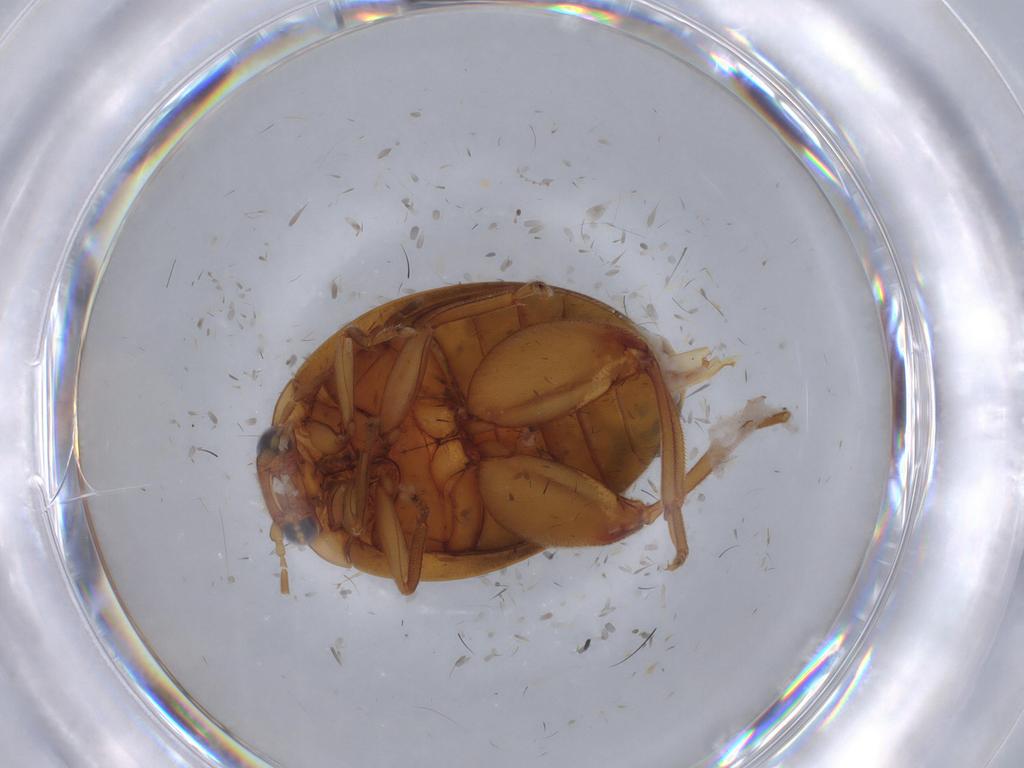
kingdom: Animalia
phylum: Arthropoda
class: Insecta
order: Coleoptera
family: Scirtidae
